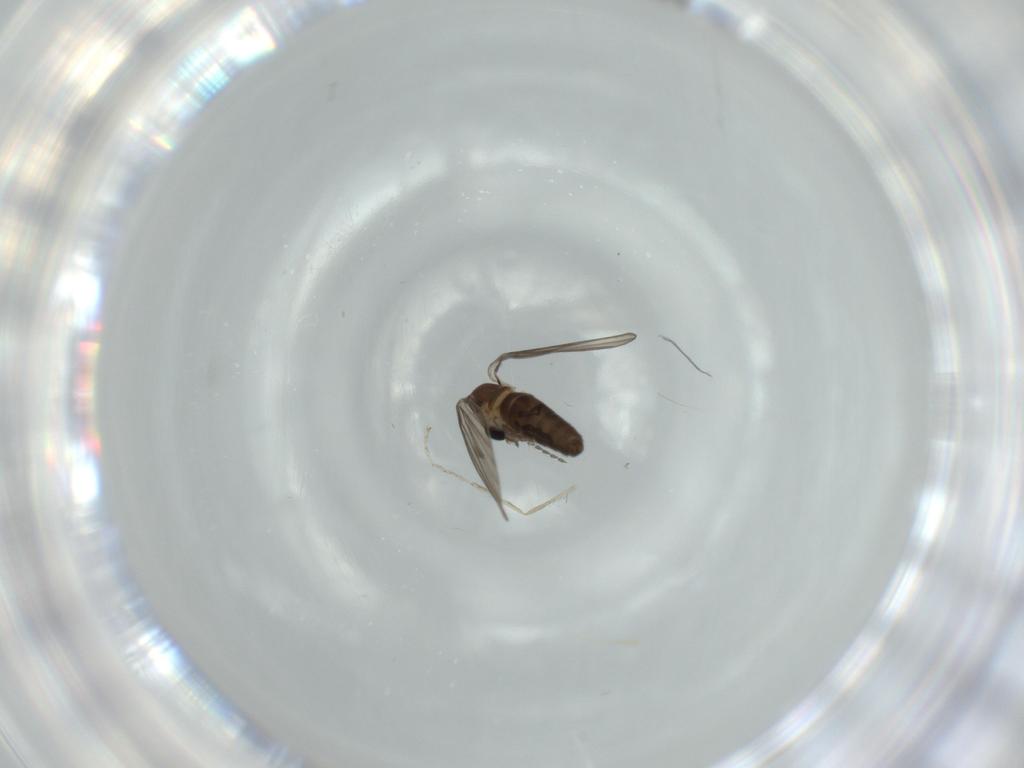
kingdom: Animalia
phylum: Arthropoda
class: Insecta
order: Diptera
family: Psychodidae
